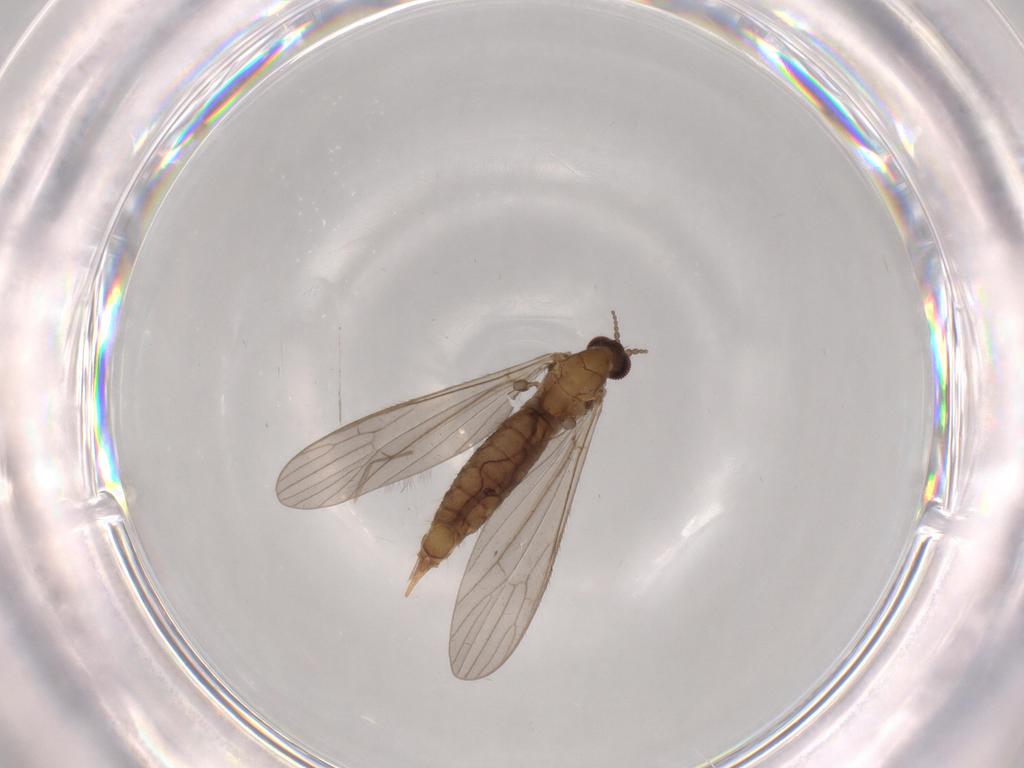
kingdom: Animalia
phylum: Arthropoda
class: Insecta
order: Diptera
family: Limoniidae
